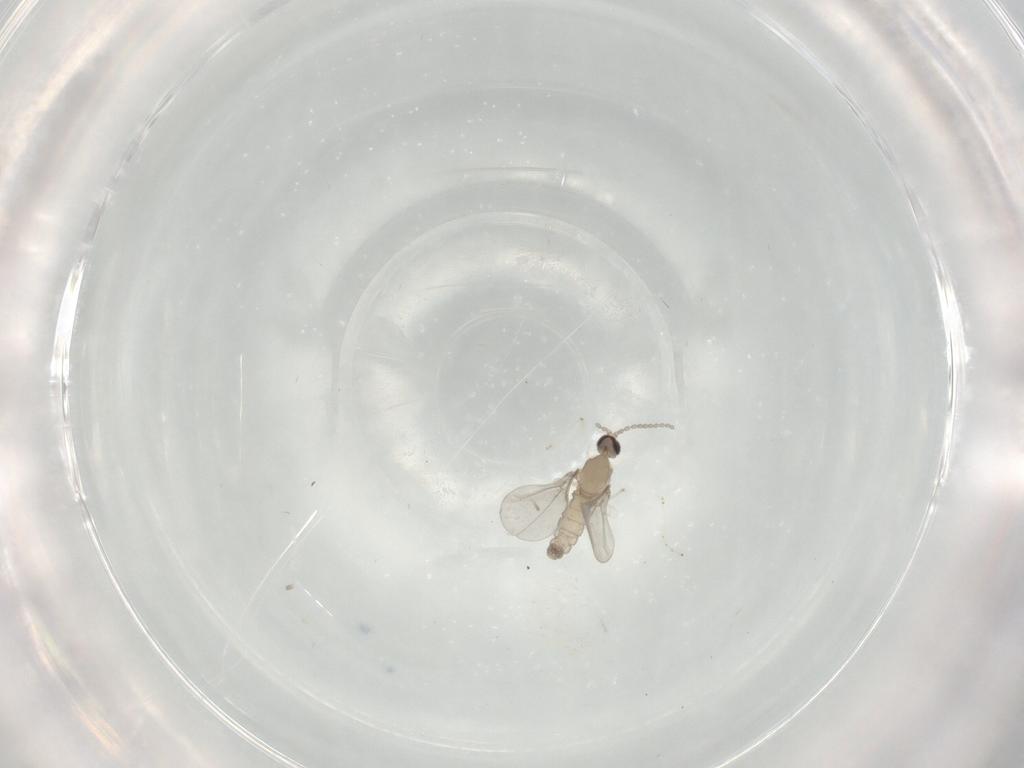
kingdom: Animalia
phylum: Arthropoda
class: Insecta
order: Diptera
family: Cecidomyiidae
